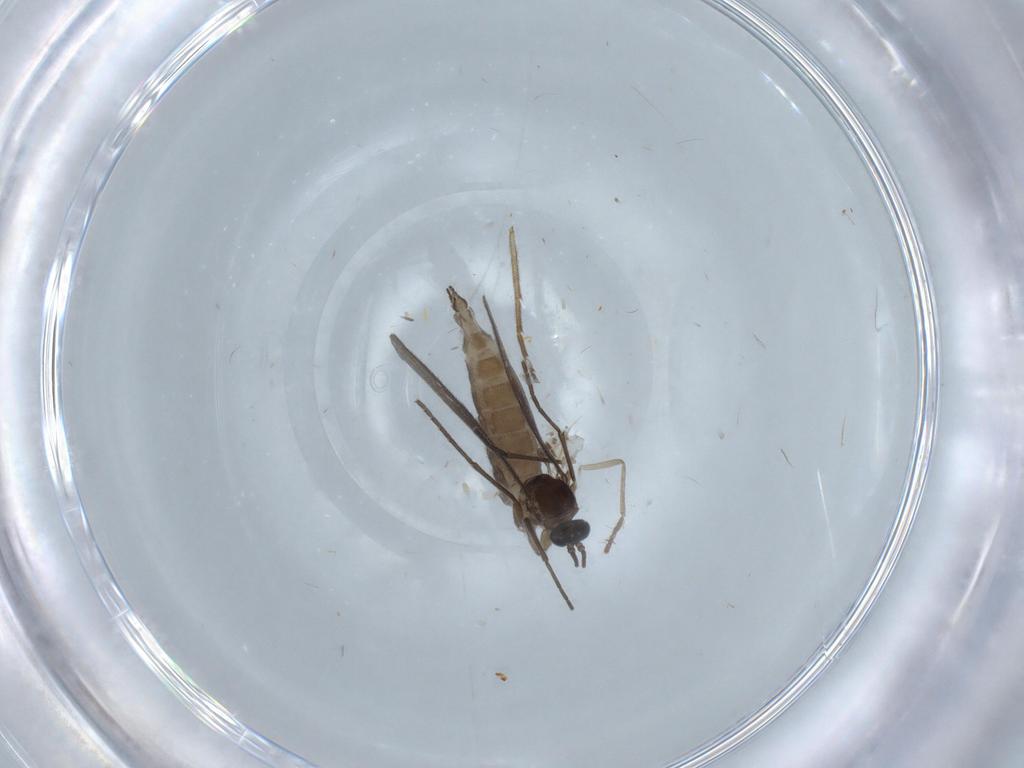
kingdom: Animalia
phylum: Arthropoda
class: Insecta
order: Diptera
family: Sciaridae
